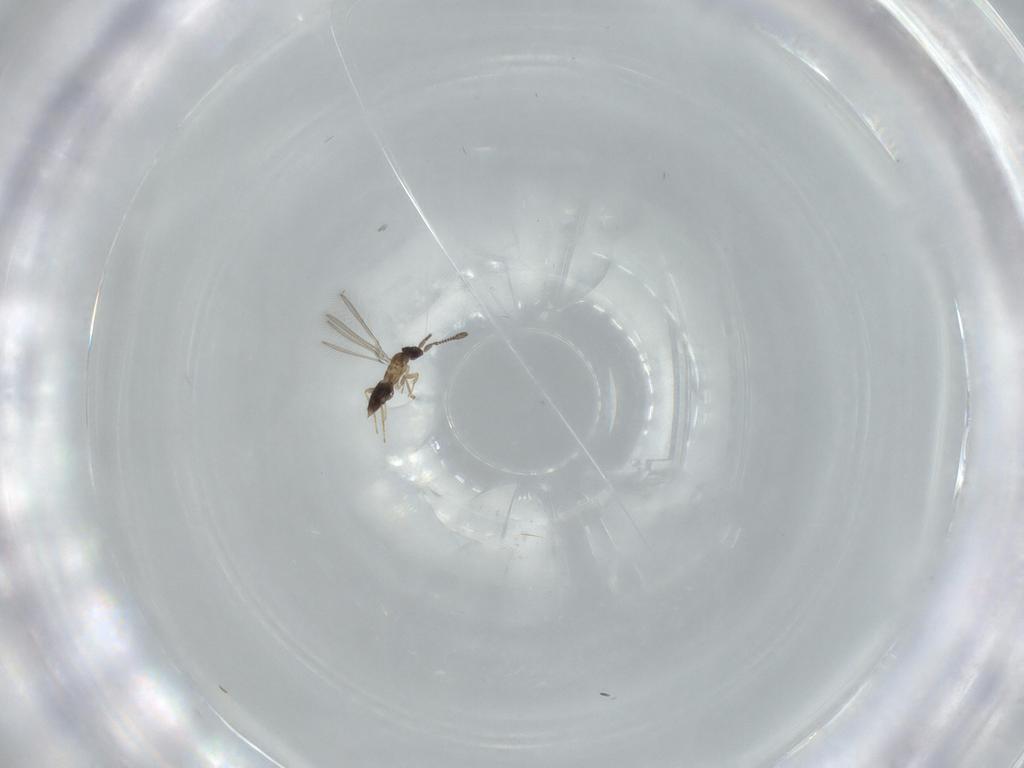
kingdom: Animalia
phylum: Arthropoda
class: Insecta
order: Hymenoptera
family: Mymaridae
